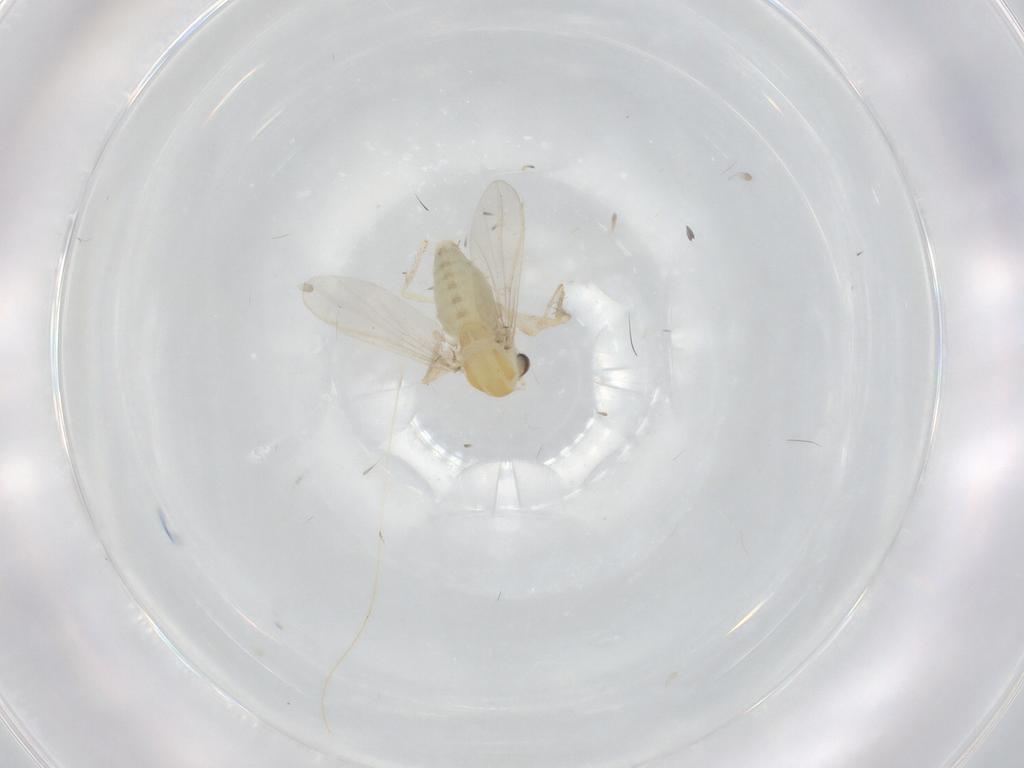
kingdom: Animalia
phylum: Arthropoda
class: Insecta
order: Diptera
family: Chironomidae
